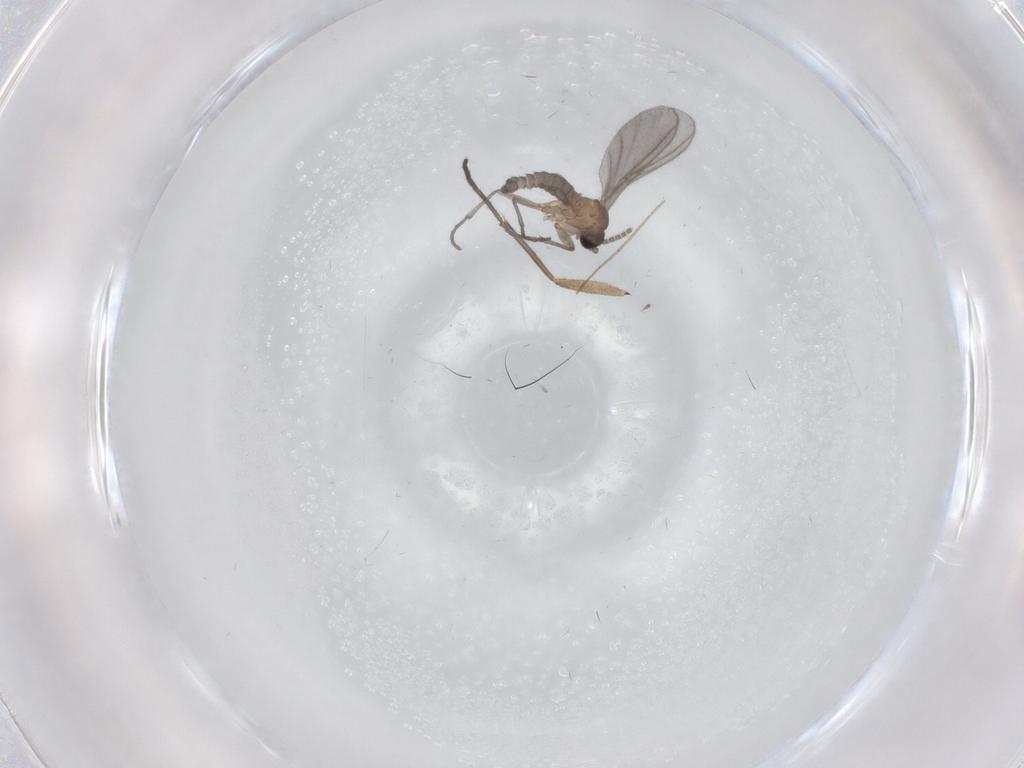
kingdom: Animalia
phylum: Arthropoda
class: Insecta
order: Diptera
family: Sciaridae
